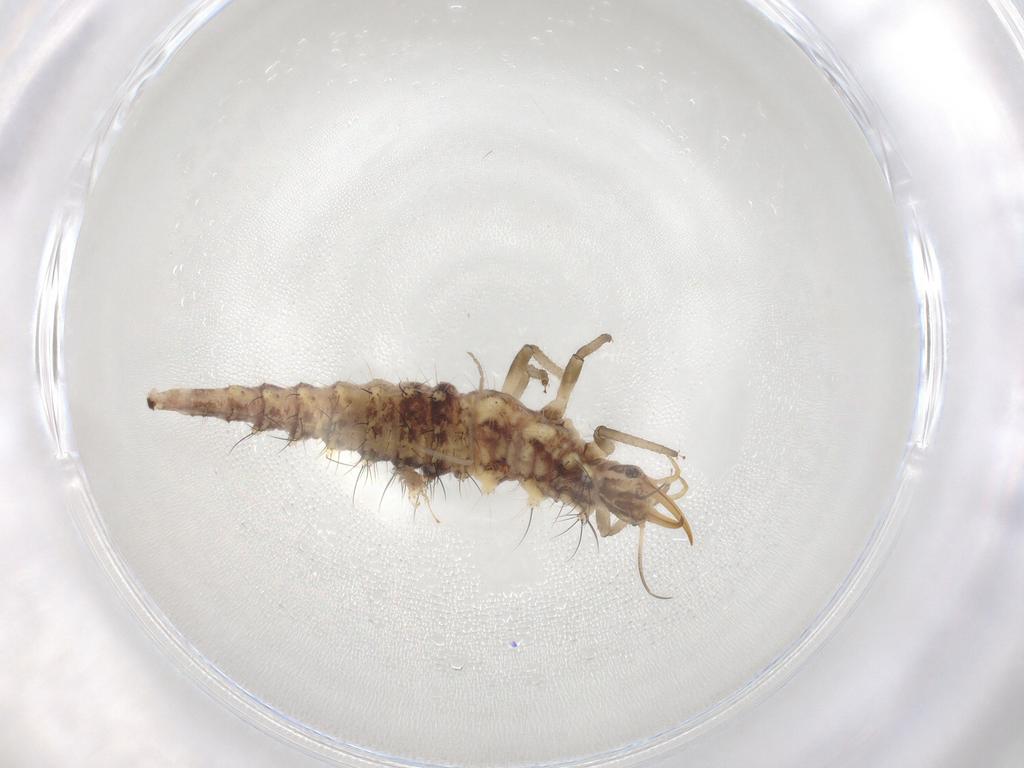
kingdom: Animalia
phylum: Arthropoda
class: Insecta
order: Neuroptera
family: Chrysopidae
